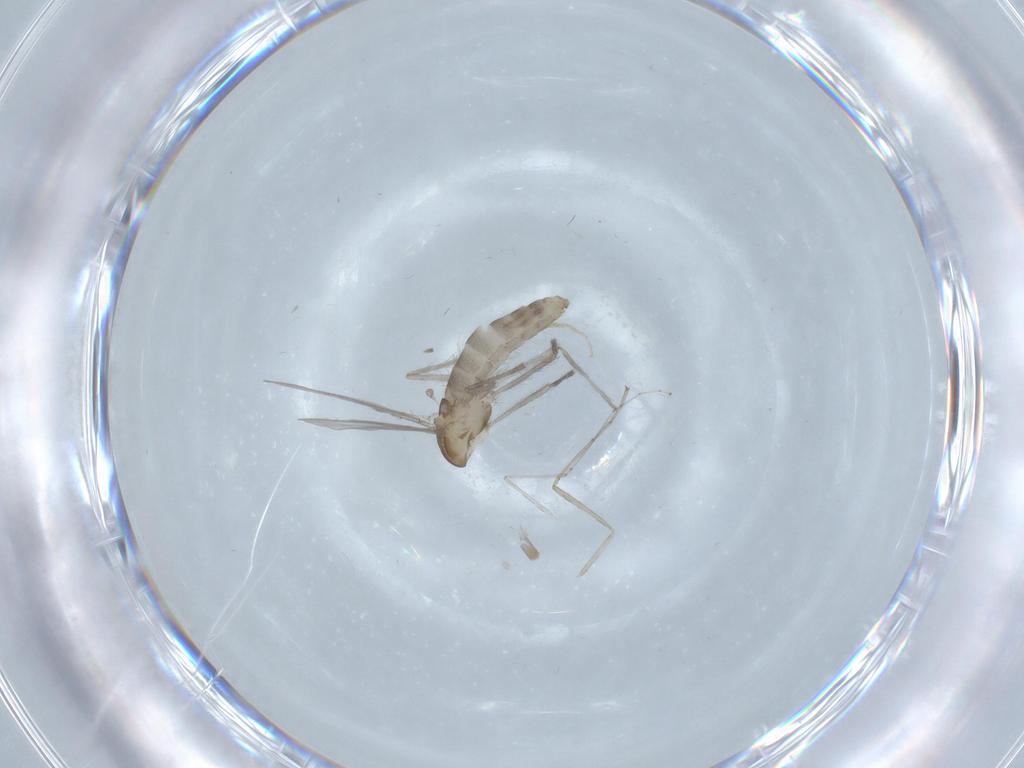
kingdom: Animalia
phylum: Arthropoda
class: Insecta
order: Diptera
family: Chironomidae
